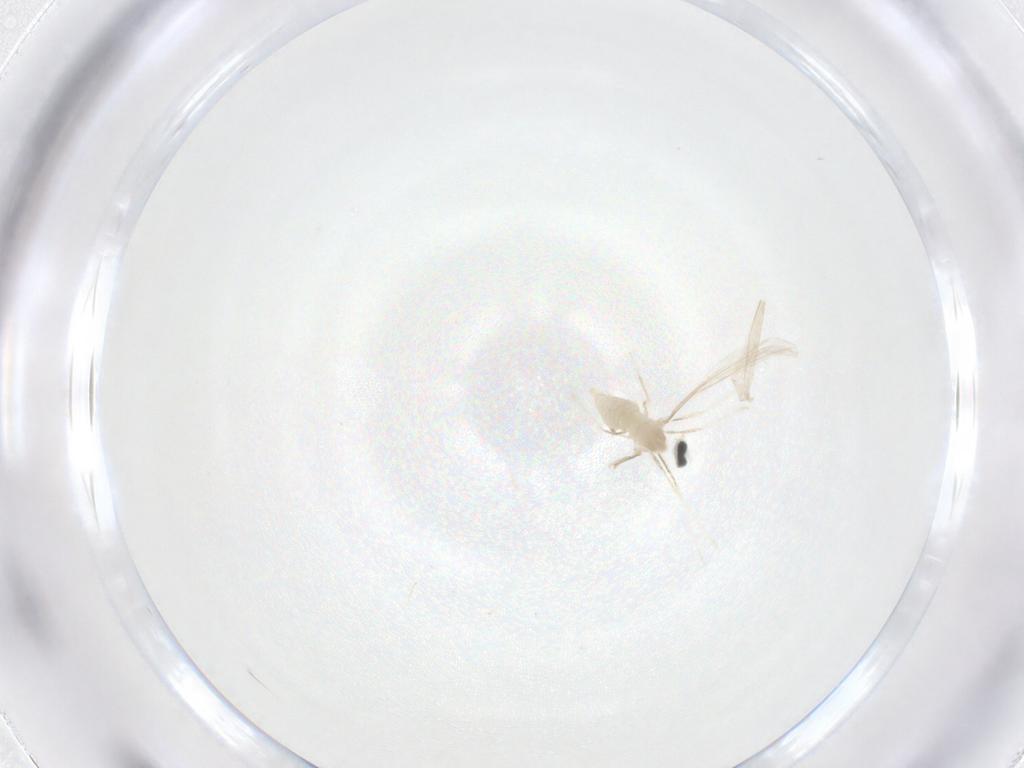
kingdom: Animalia
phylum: Arthropoda
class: Insecta
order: Diptera
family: Cecidomyiidae
